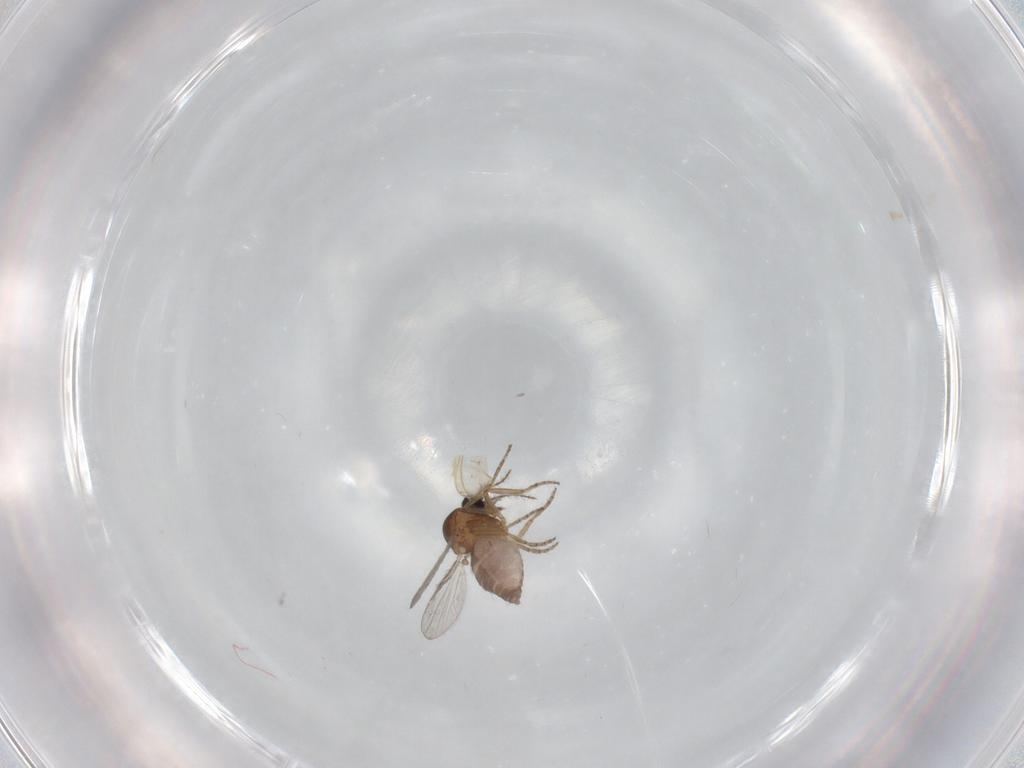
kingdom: Animalia
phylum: Arthropoda
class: Insecta
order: Diptera
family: Ceratopogonidae
